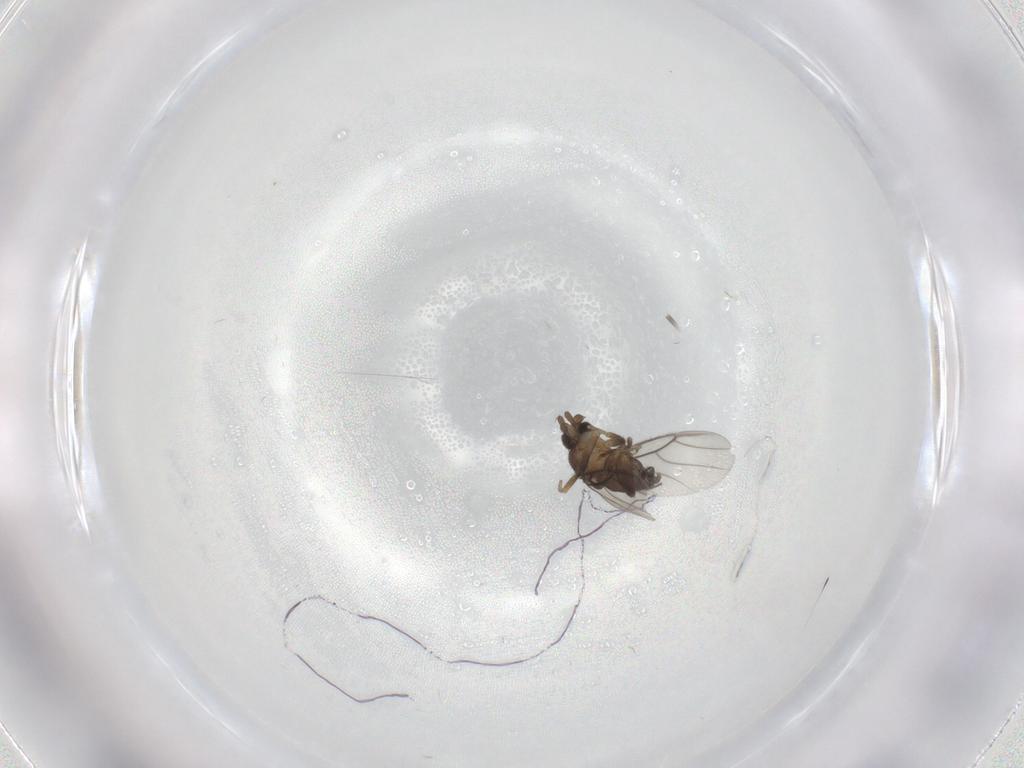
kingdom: Animalia
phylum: Arthropoda
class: Insecta
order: Diptera
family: Phoridae
